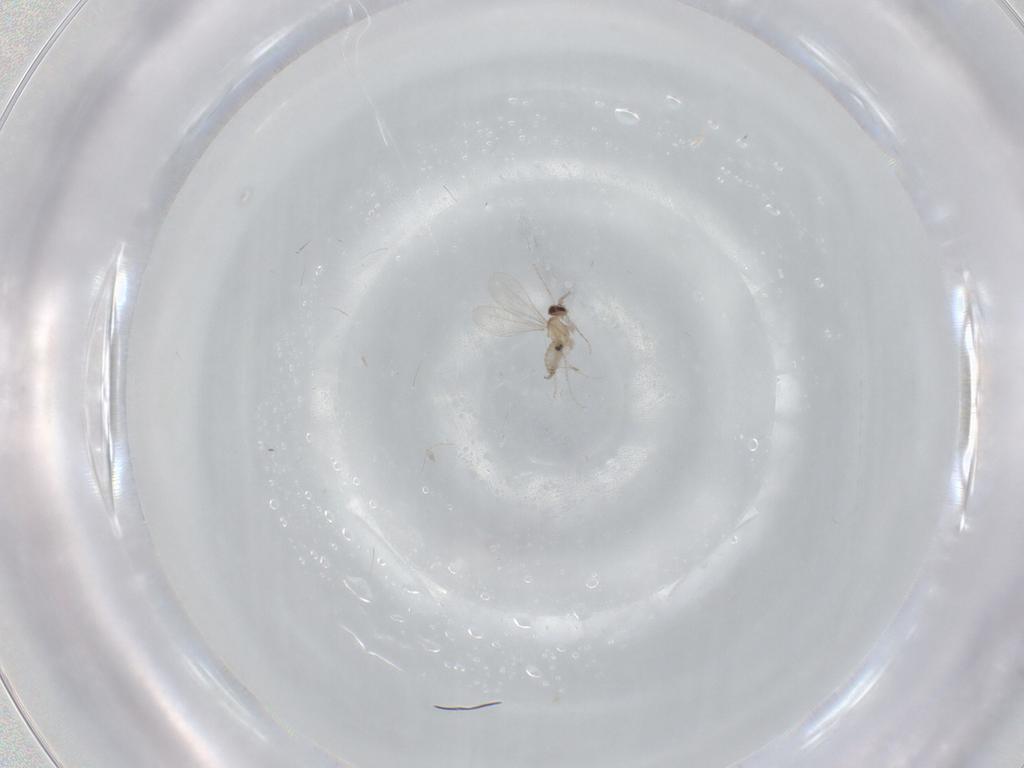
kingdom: Animalia
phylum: Arthropoda
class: Insecta
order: Diptera
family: Cecidomyiidae
